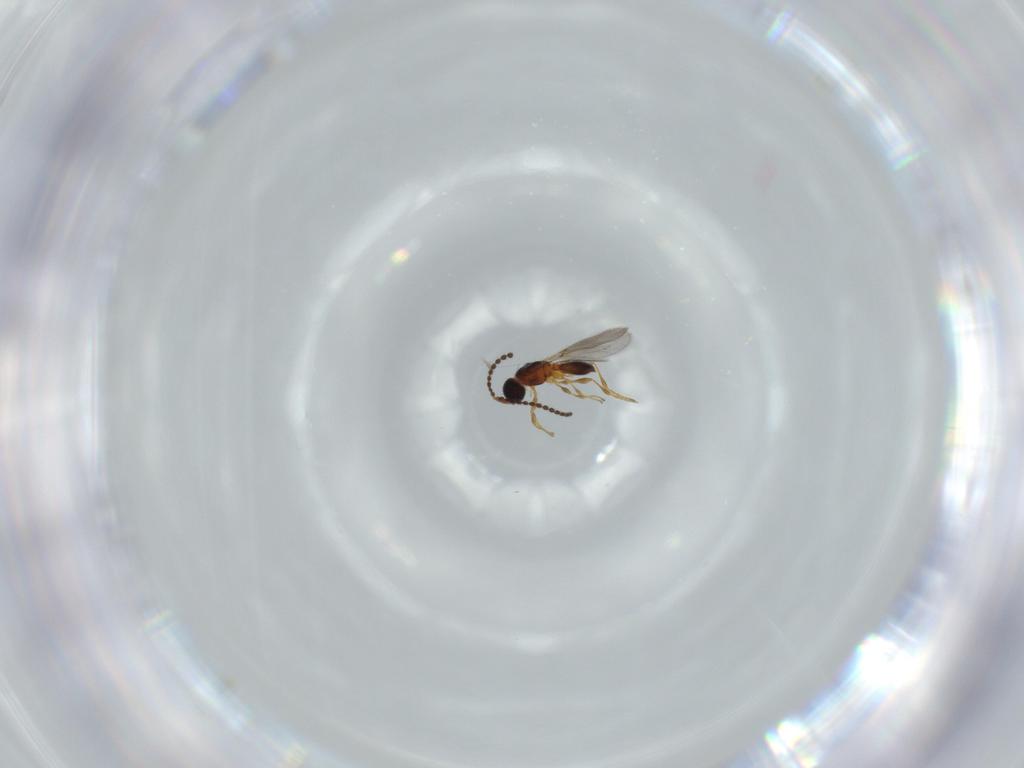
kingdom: Animalia
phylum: Arthropoda
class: Insecta
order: Hymenoptera
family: Diapriidae
